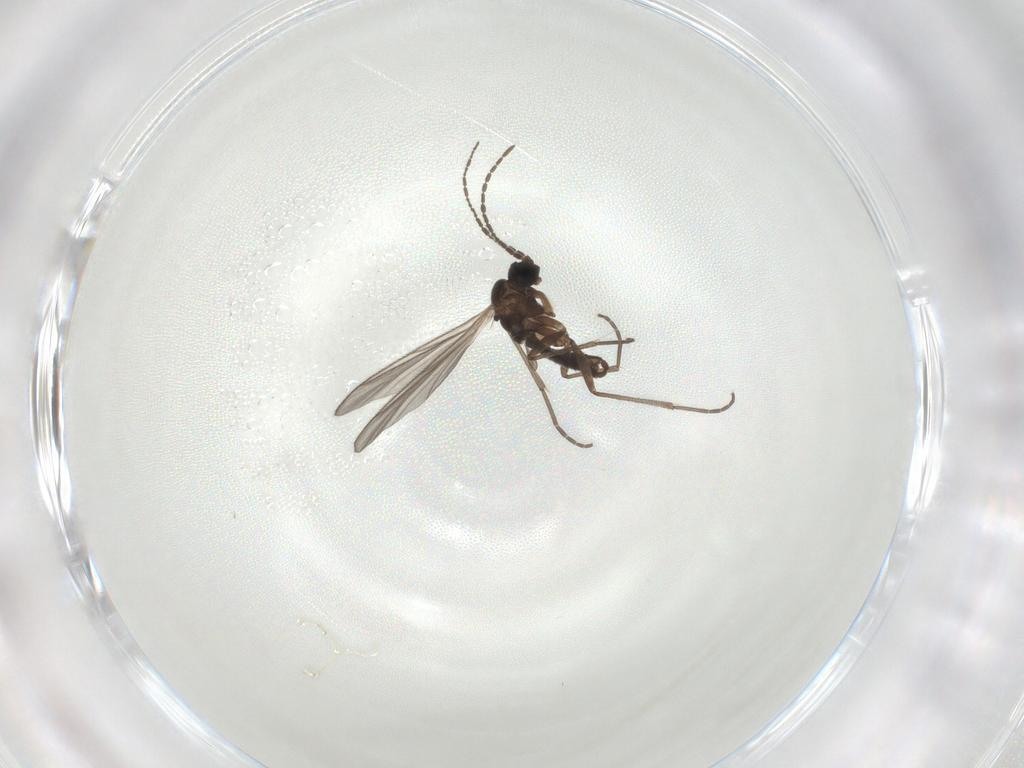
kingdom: Animalia
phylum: Arthropoda
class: Insecta
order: Diptera
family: Chironomidae
